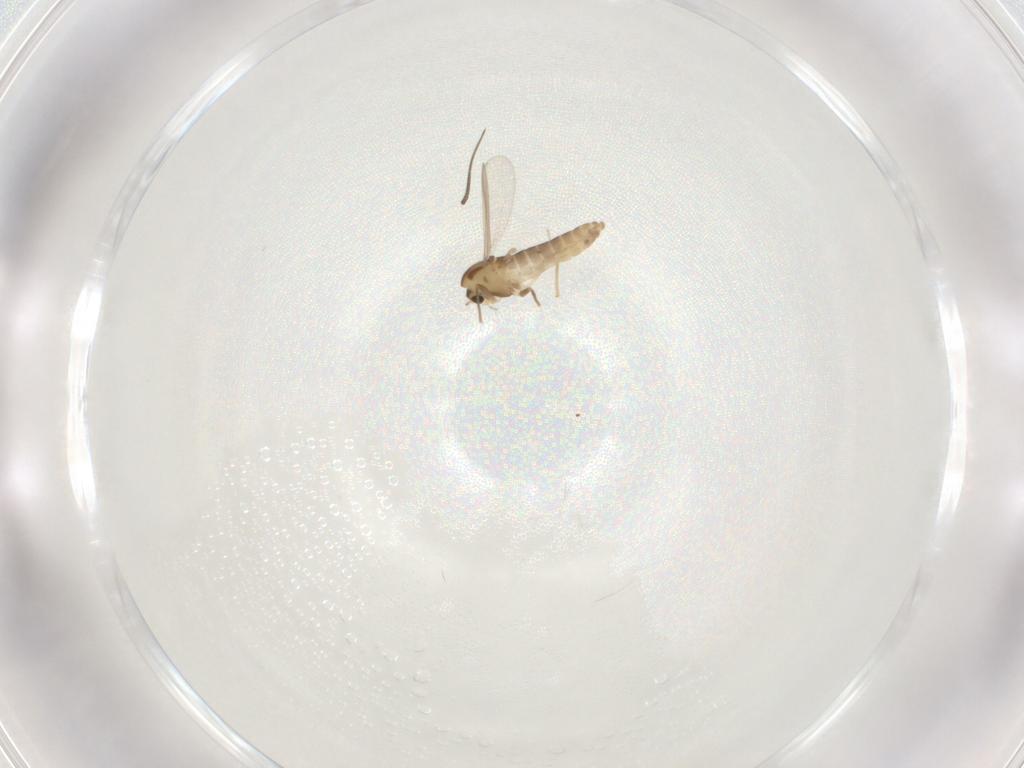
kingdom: Animalia
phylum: Arthropoda
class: Insecta
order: Diptera
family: Chironomidae
